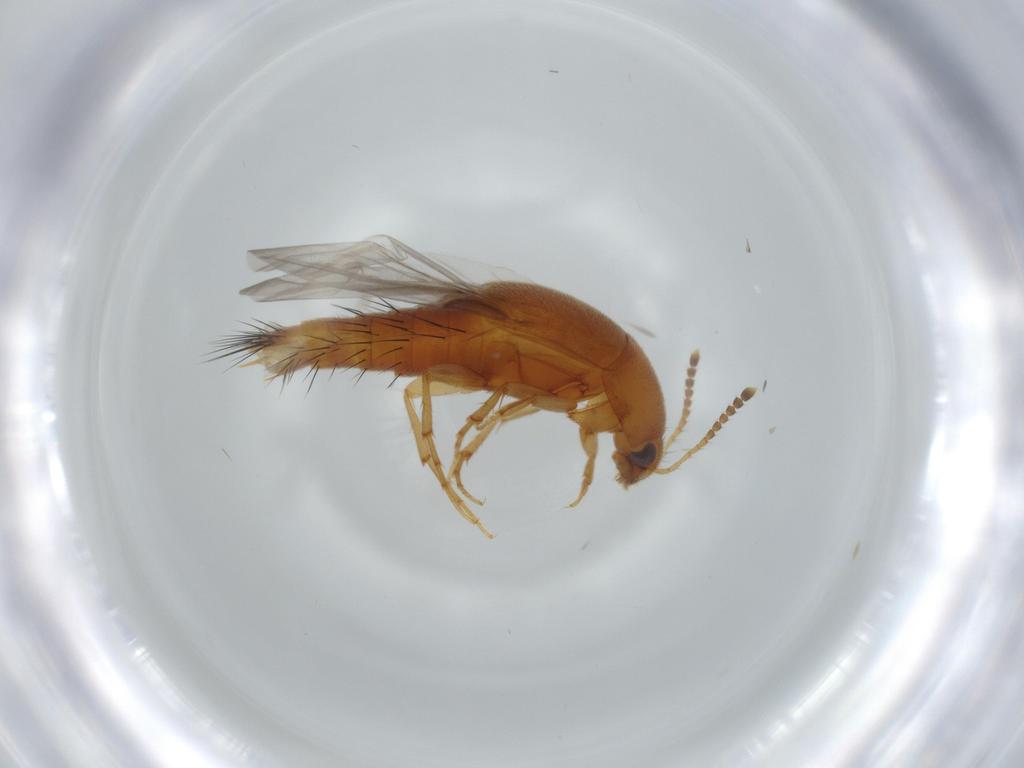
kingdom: Animalia
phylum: Arthropoda
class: Insecta
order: Coleoptera
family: Staphylinidae
